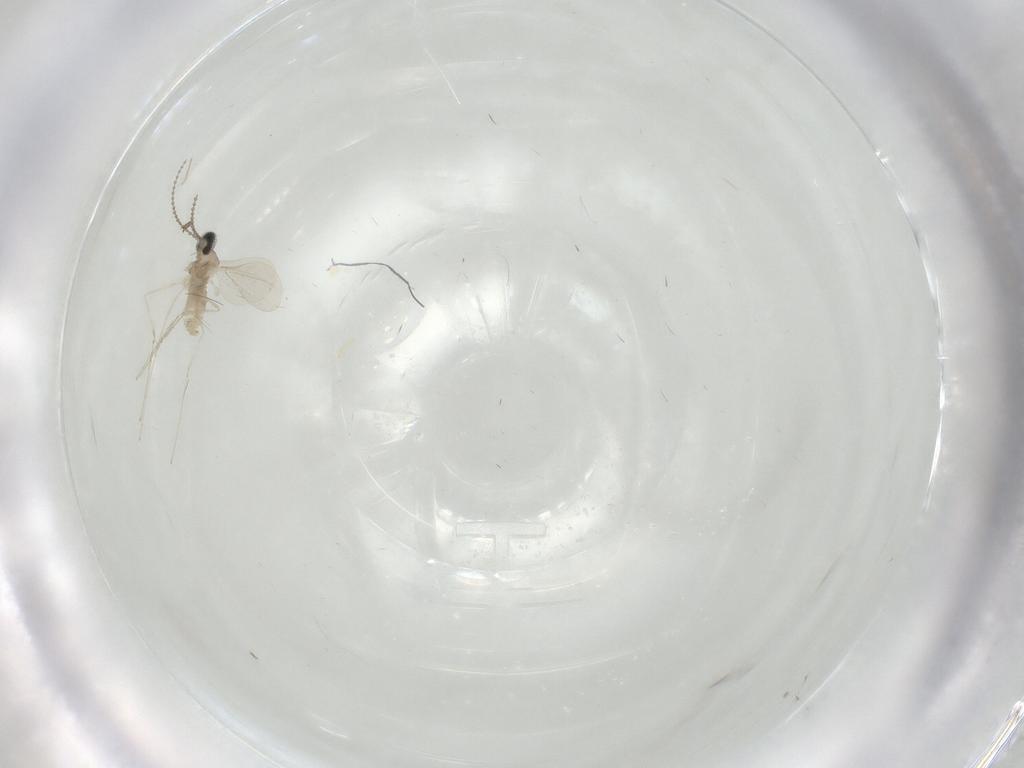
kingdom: Animalia
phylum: Arthropoda
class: Insecta
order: Diptera
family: Cecidomyiidae
